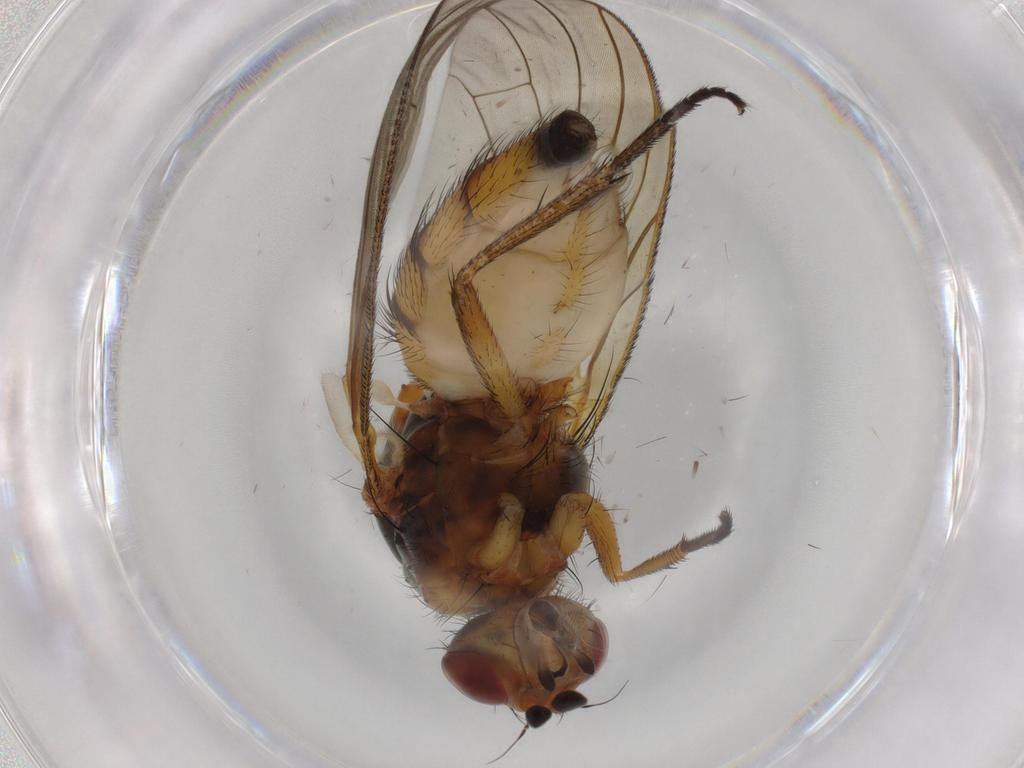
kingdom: Animalia
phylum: Arthropoda
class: Insecta
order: Diptera
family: Anthomyiidae
